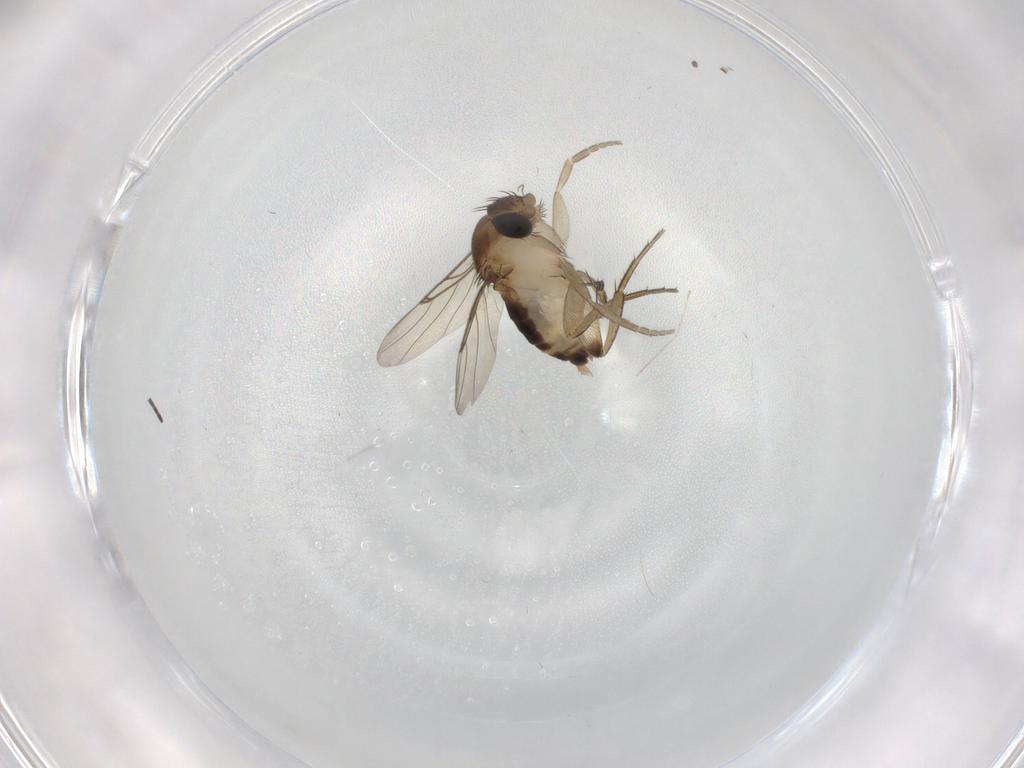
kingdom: Animalia
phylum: Arthropoda
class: Insecta
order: Diptera
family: Phoridae
